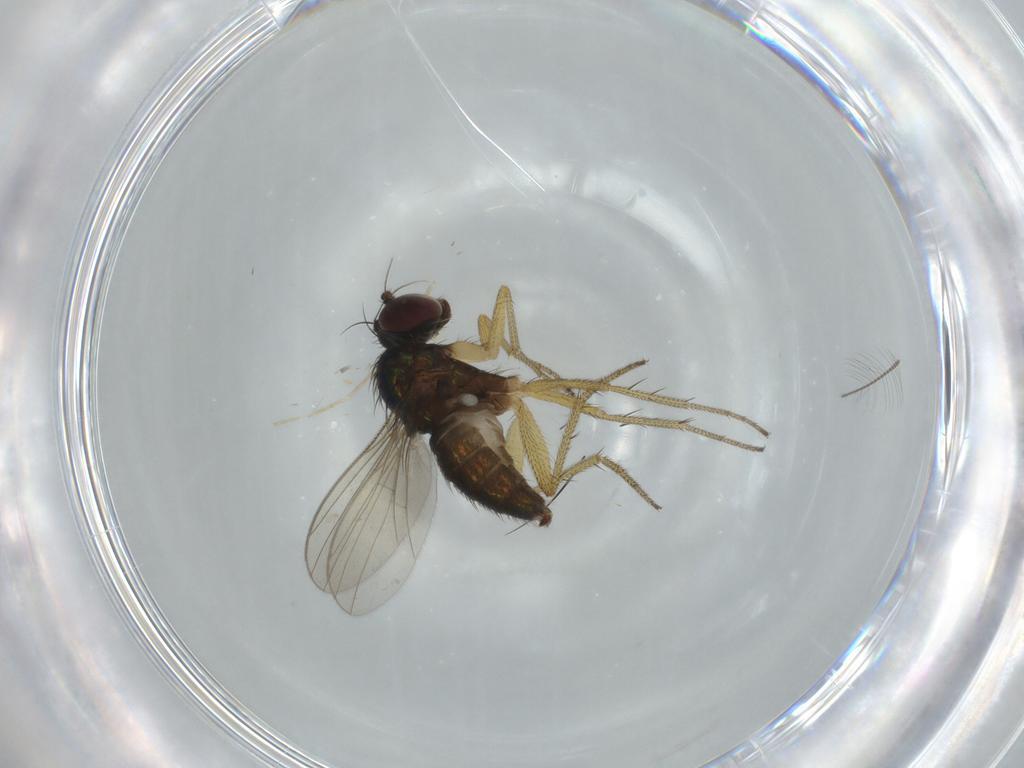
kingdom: Animalia
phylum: Arthropoda
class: Insecta
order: Diptera
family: Dolichopodidae
